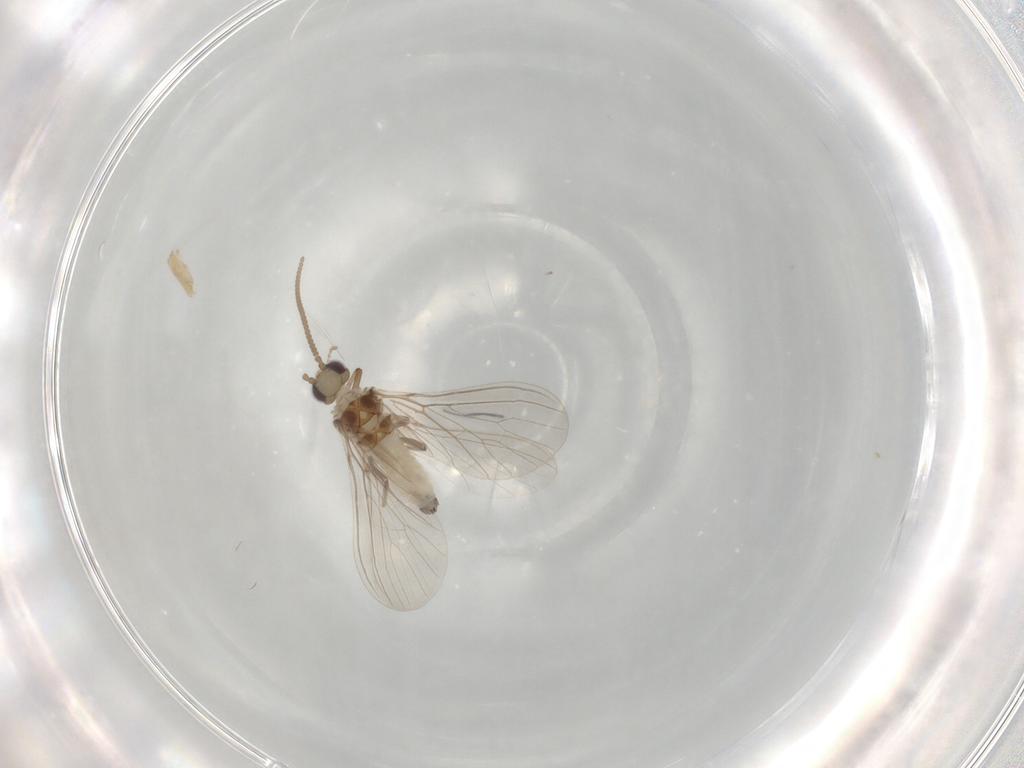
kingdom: Animalia
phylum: Arthropoda
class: Insecta
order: Neuroptera
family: Coniopterygidae
